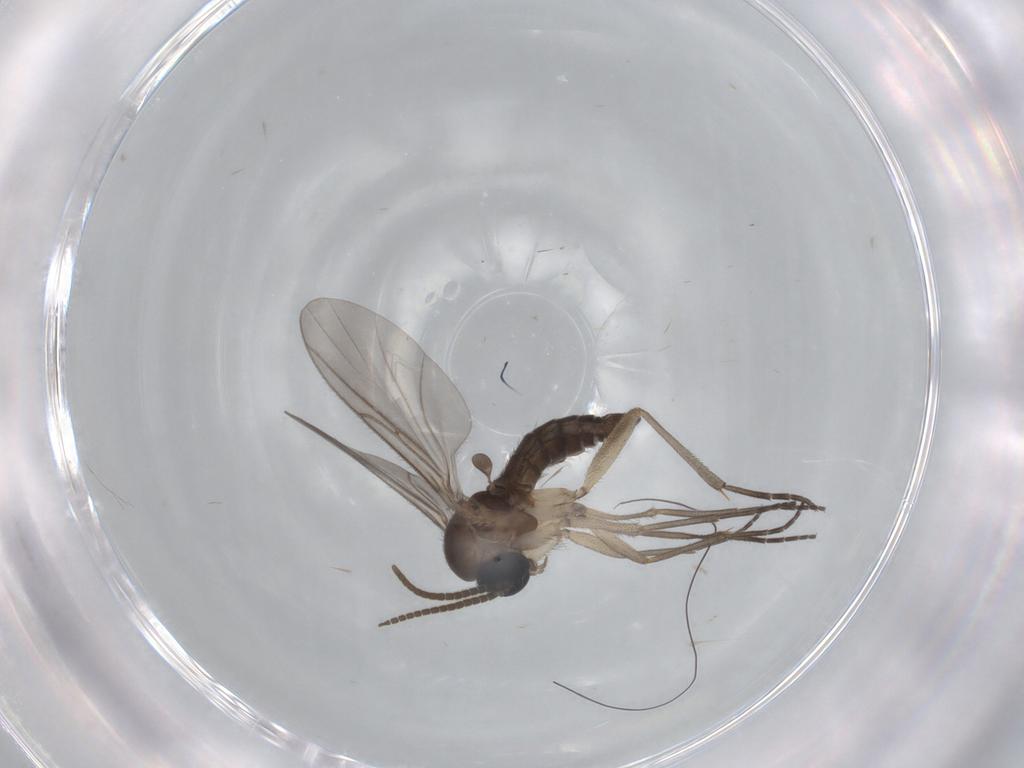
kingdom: Animalia
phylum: Arthropoda
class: Insecta
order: Diptera
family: Sciaridae
